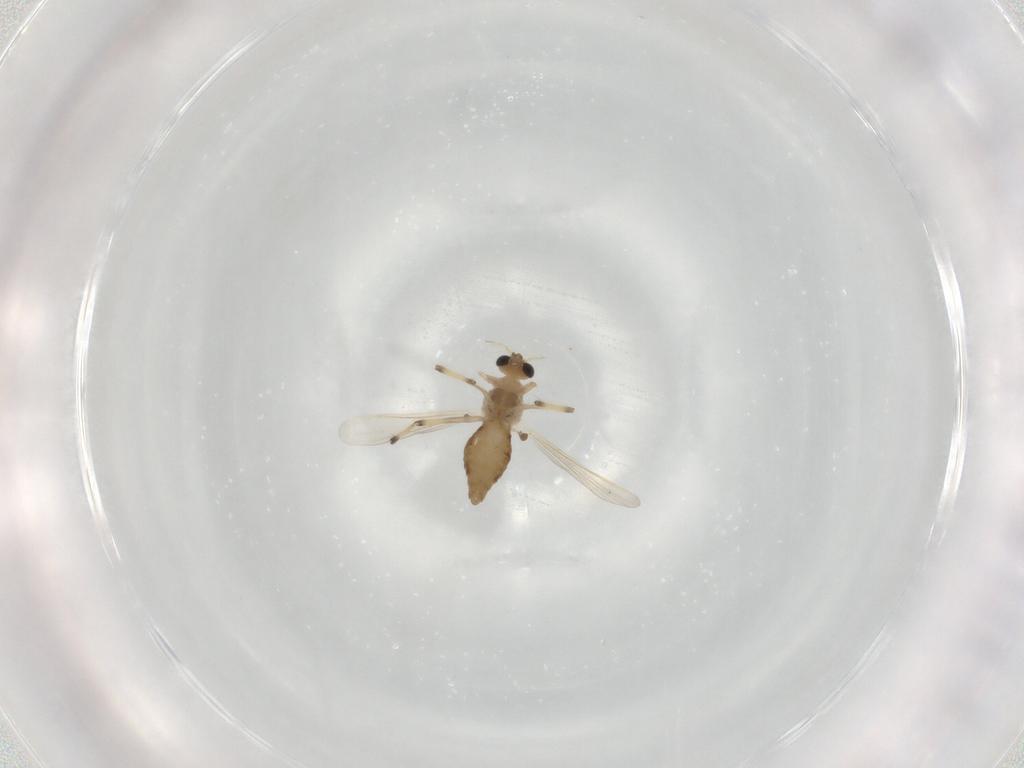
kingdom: Animalia
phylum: Arthropoda
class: Insecta
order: Diptera
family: Chironomidae
